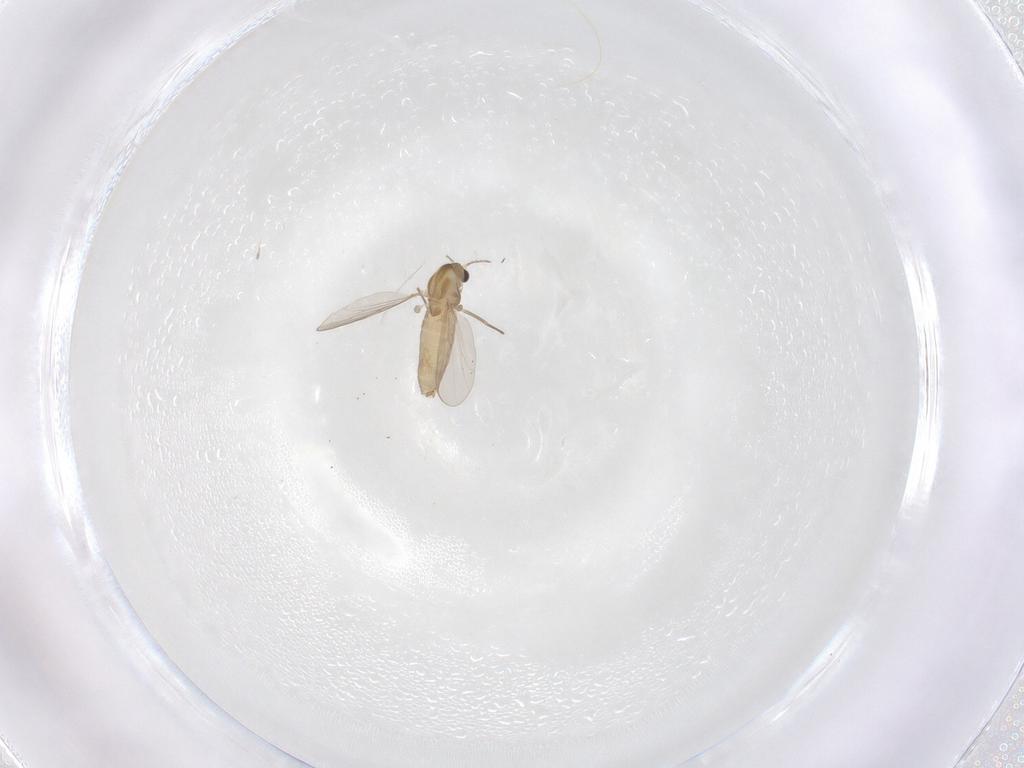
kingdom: Animalia
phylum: Arthropoda
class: Insecta
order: Diptera
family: Chironomidae
